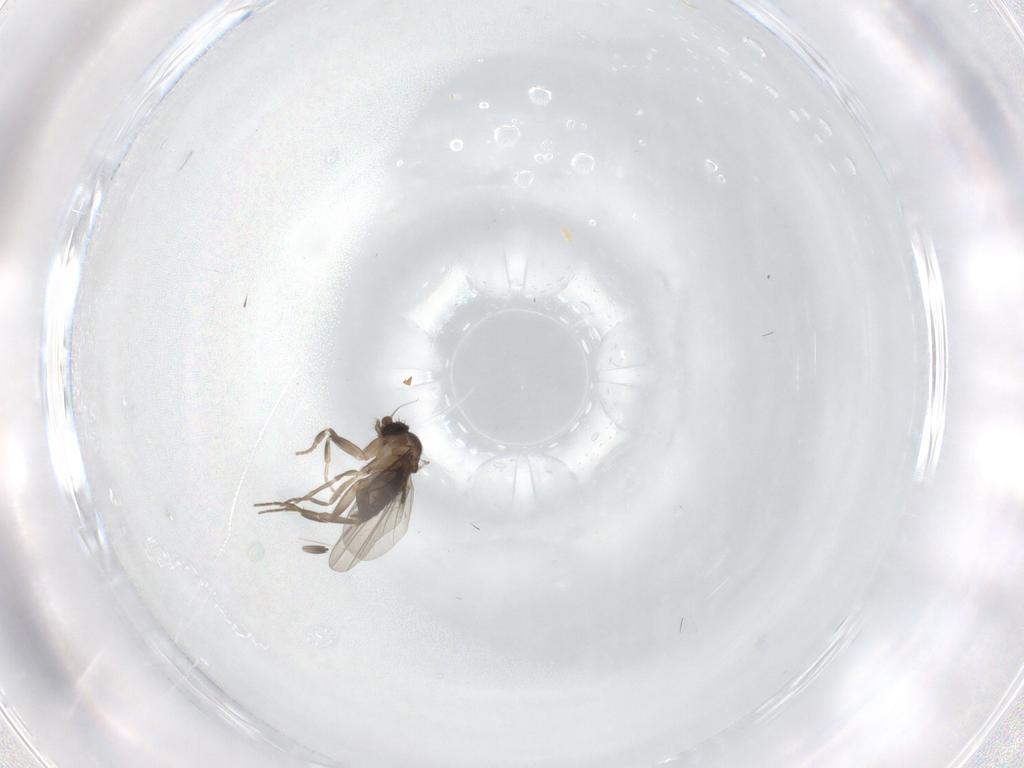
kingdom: Animalia
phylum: Arthropoda
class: Insecta
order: Diptera
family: Phoridae
